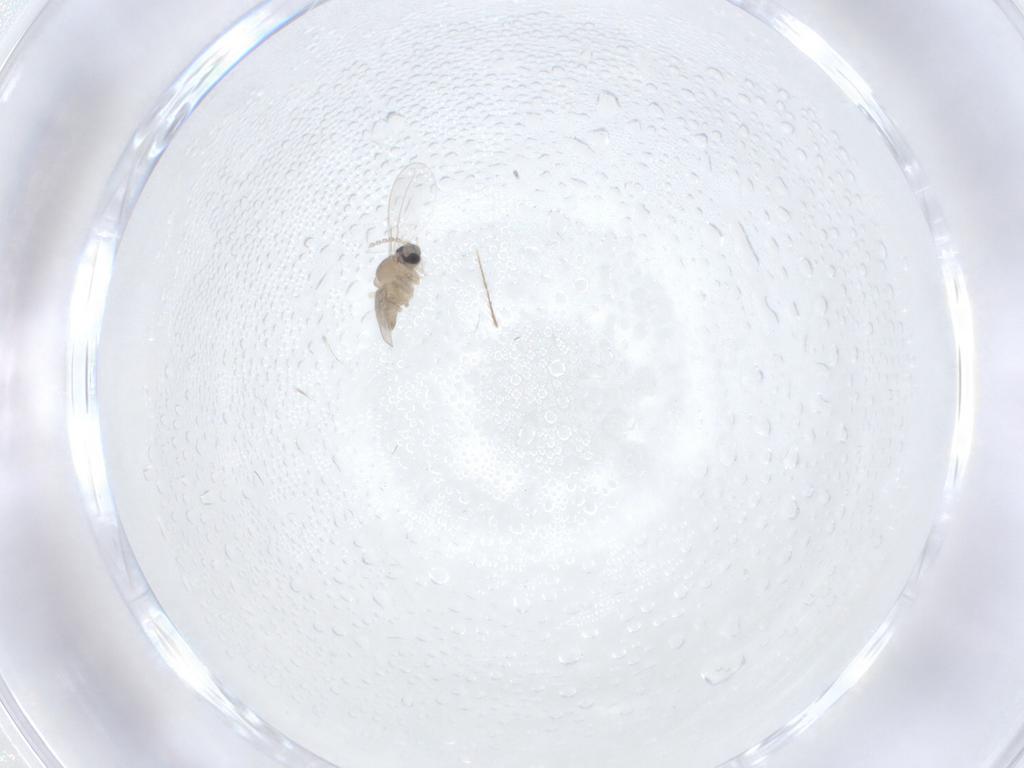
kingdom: Animalia
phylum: Arthropoda
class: Insecta
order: Diptera
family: Cecidomyiidae
